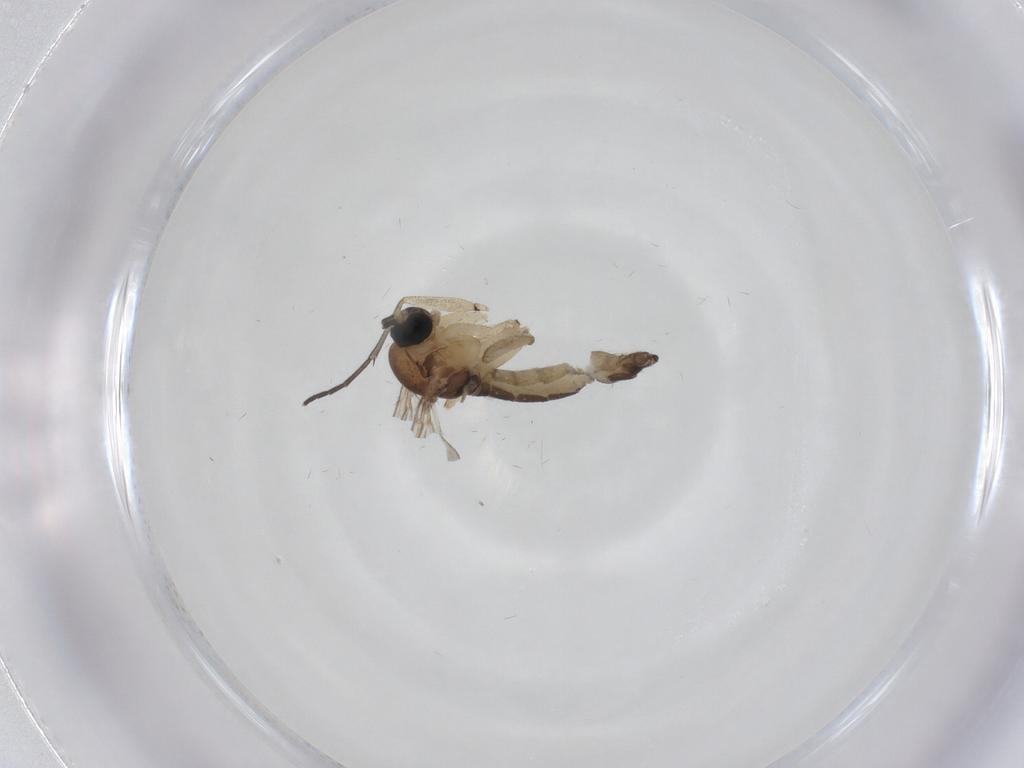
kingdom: Animalia
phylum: Arthropoda
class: Insecta
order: Diptera
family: Sciaridae
